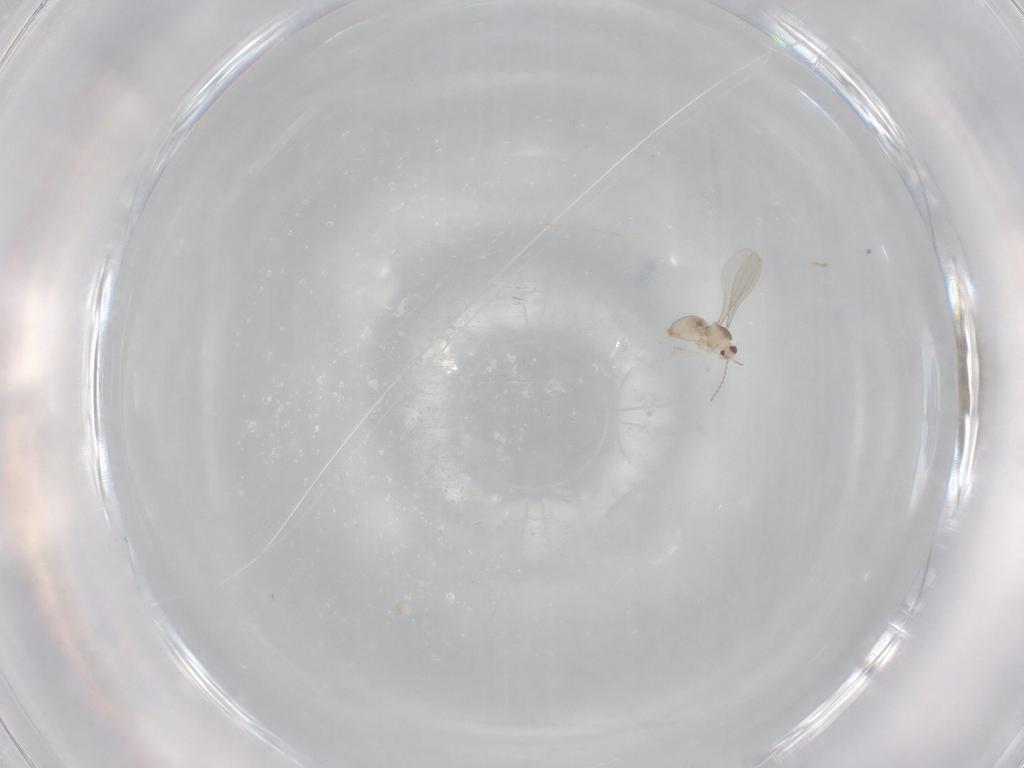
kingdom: Animalia
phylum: Arthropoda
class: Insecta
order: Diptera
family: Cecidomyiidae
